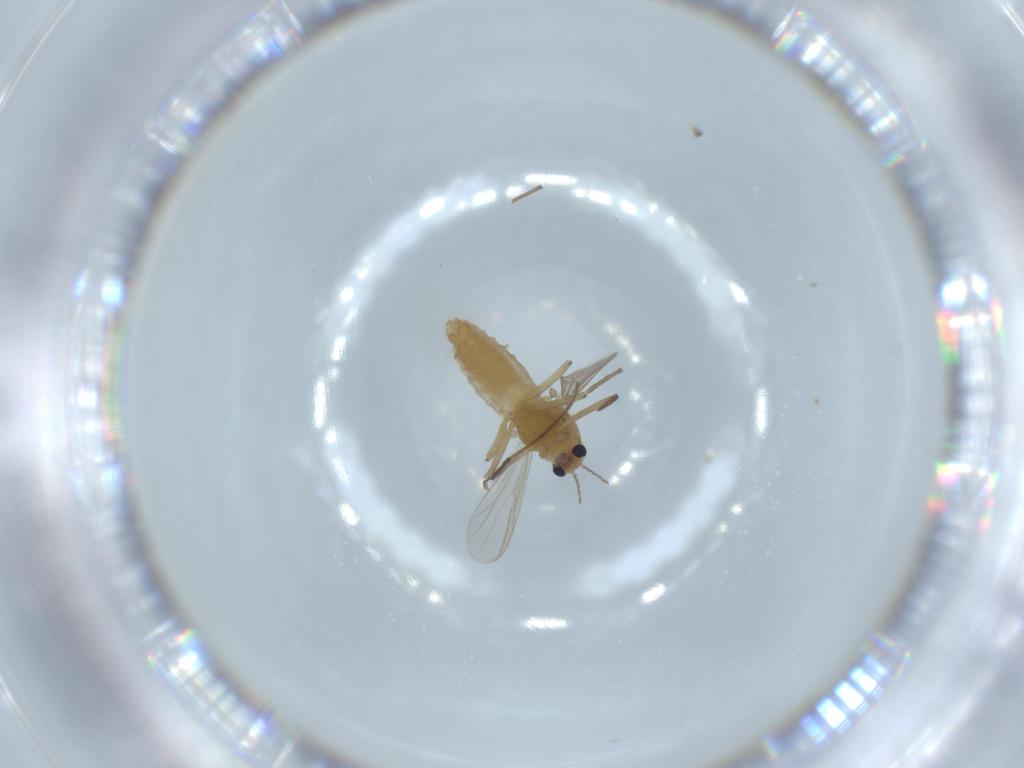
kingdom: Animalia
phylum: Arthropoda
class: Insecta
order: Diptera
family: Chironomidae
